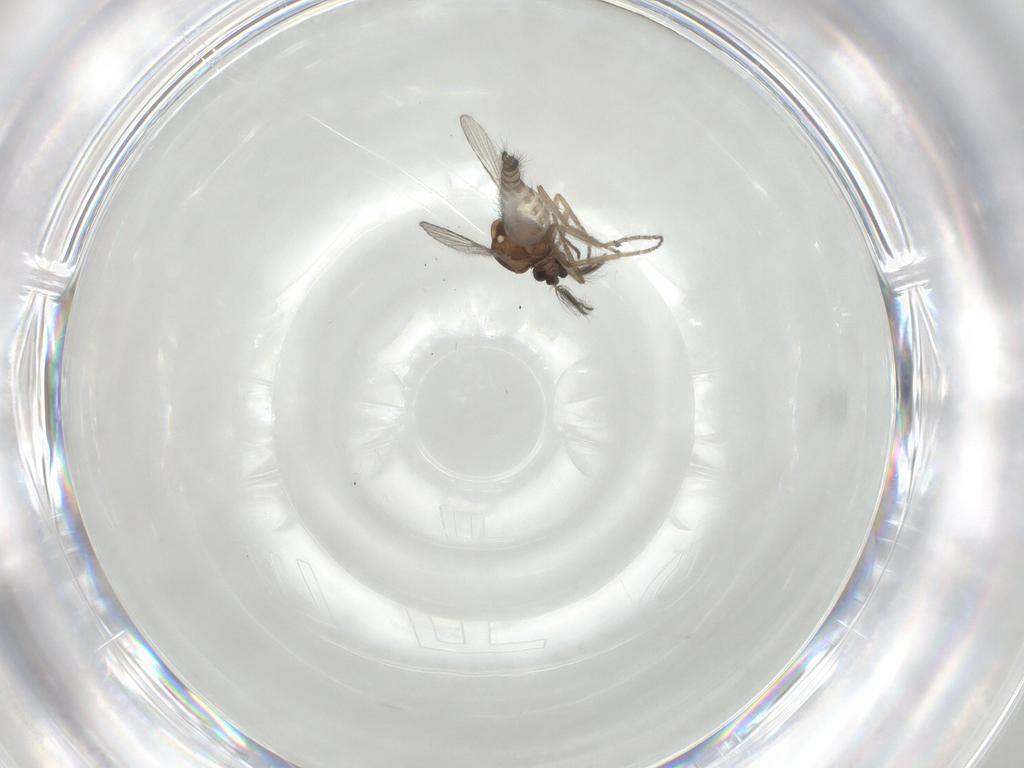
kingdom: Animalia
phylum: Arthropoda
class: Insecta
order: Diptera
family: Ceratopogonidae
